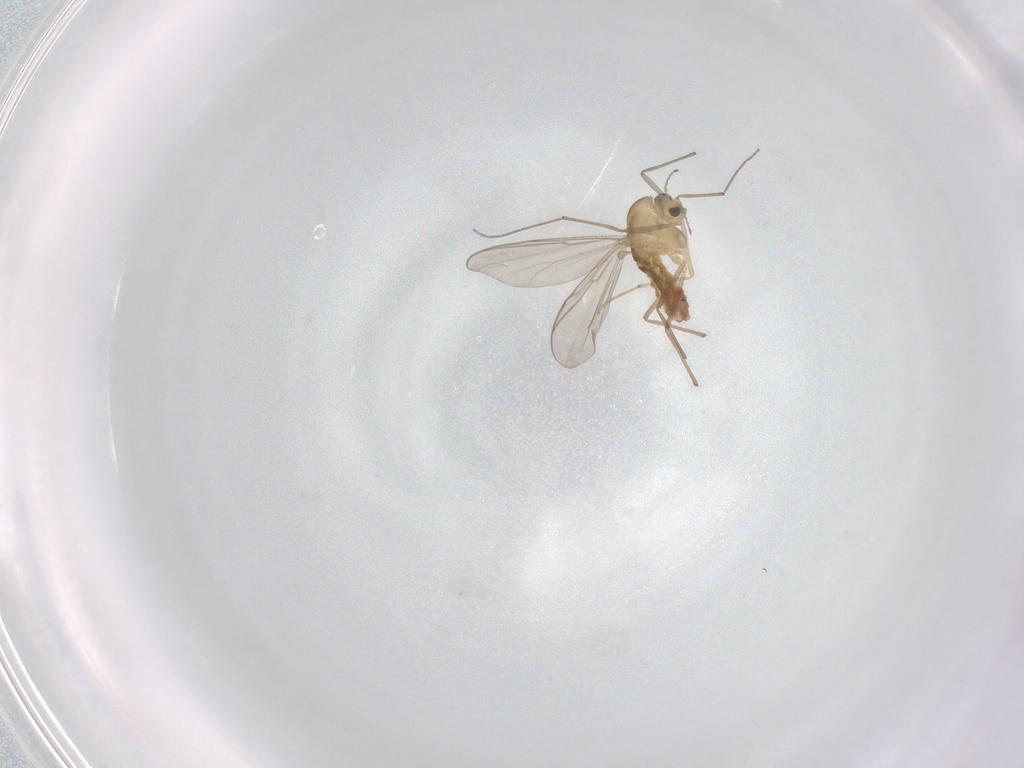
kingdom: Animalia
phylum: Arthropoda
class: Insecta
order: Diptera
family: Chironomidae
